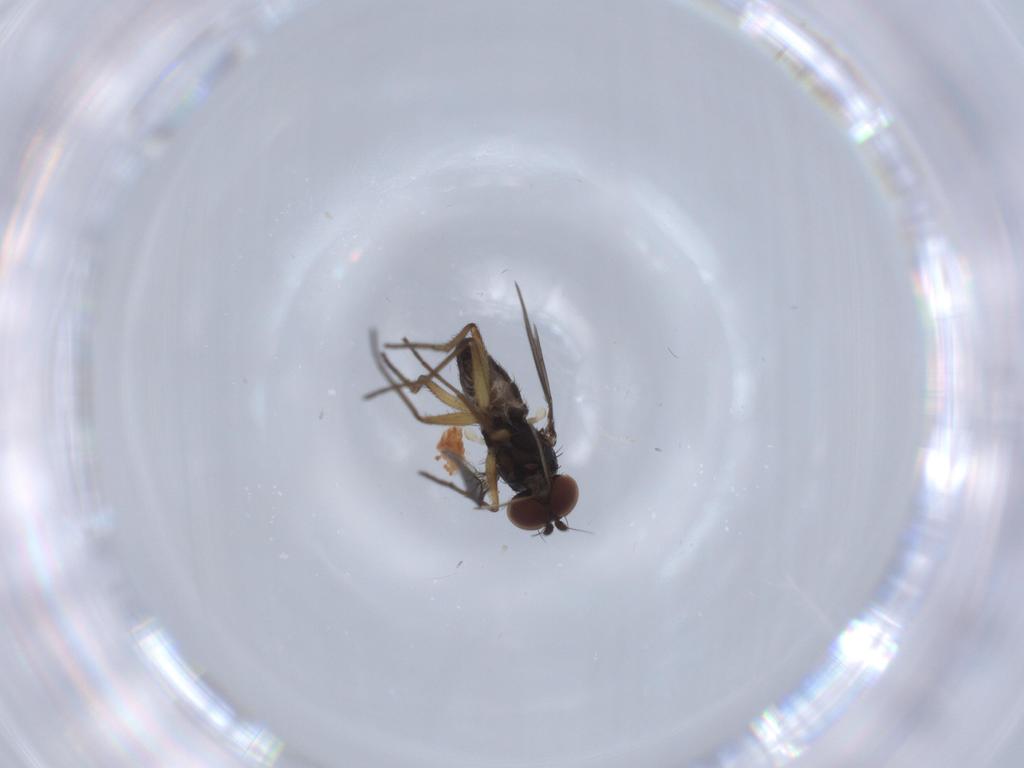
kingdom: Animalia
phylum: Arthropoda
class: Insecta
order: Diptera
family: Dolichopodidae
